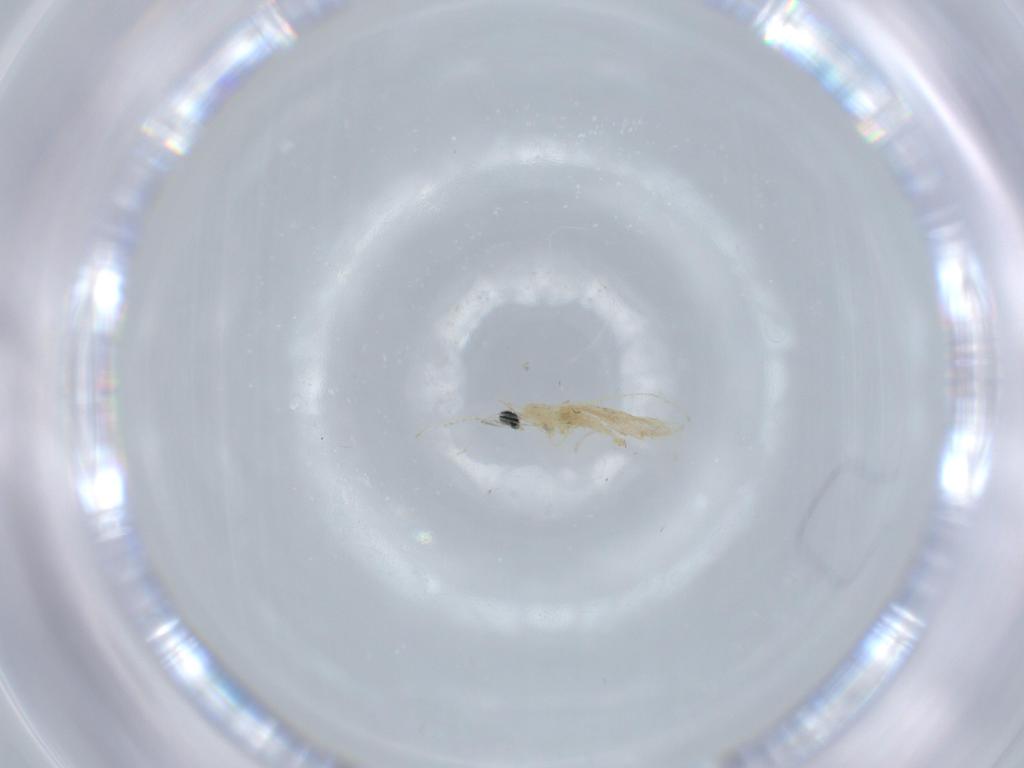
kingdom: Animalia
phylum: Arthropoda
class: Insecta
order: Diptera
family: Cecidomyiidae
